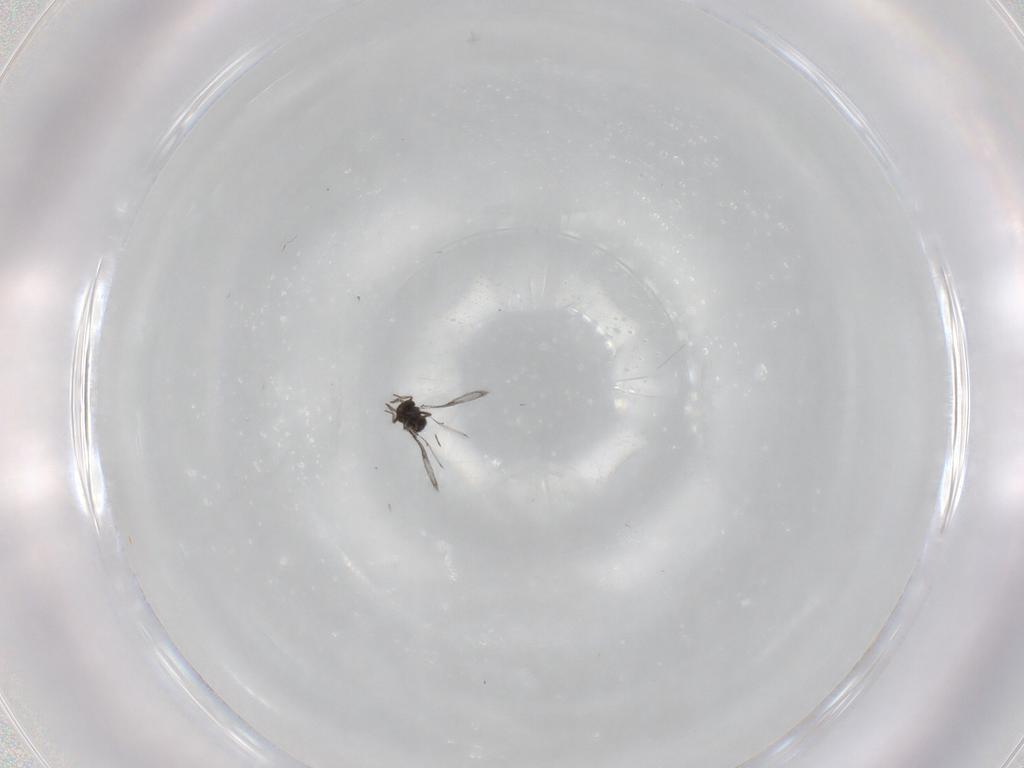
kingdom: Animalia
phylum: Arthropoda
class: Insecta
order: Hymenoptera
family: Trichogrammatidae
